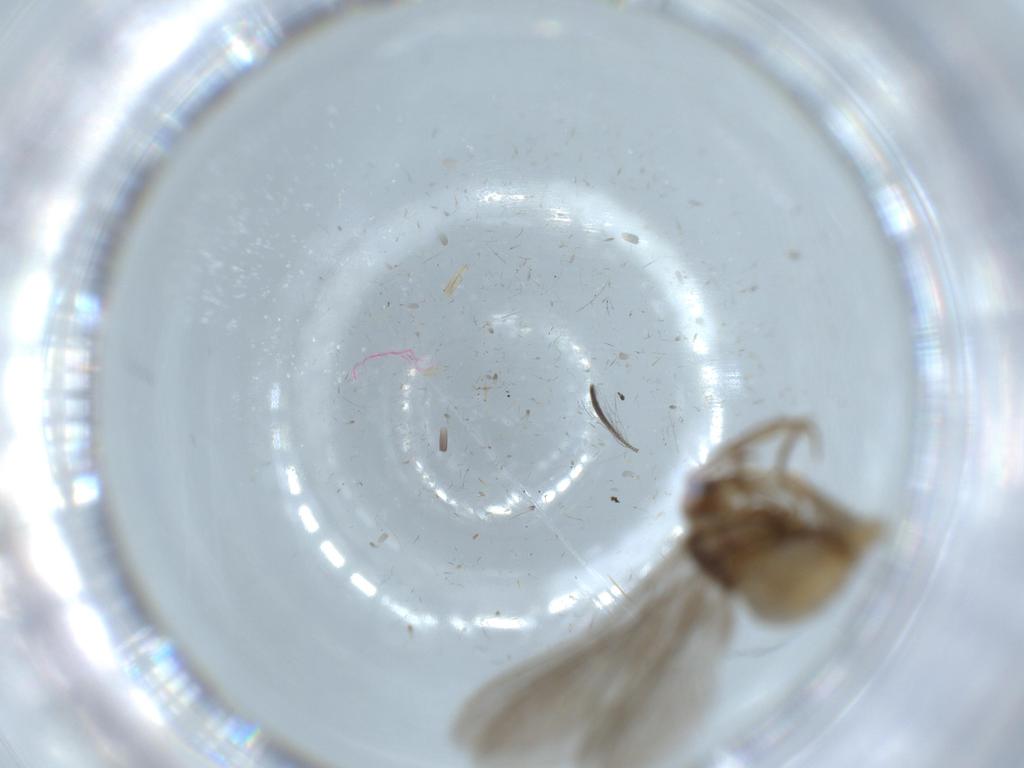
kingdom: Animalia
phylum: Arthropoda
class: Insecta
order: Neuroptera
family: Coniopterygidae
